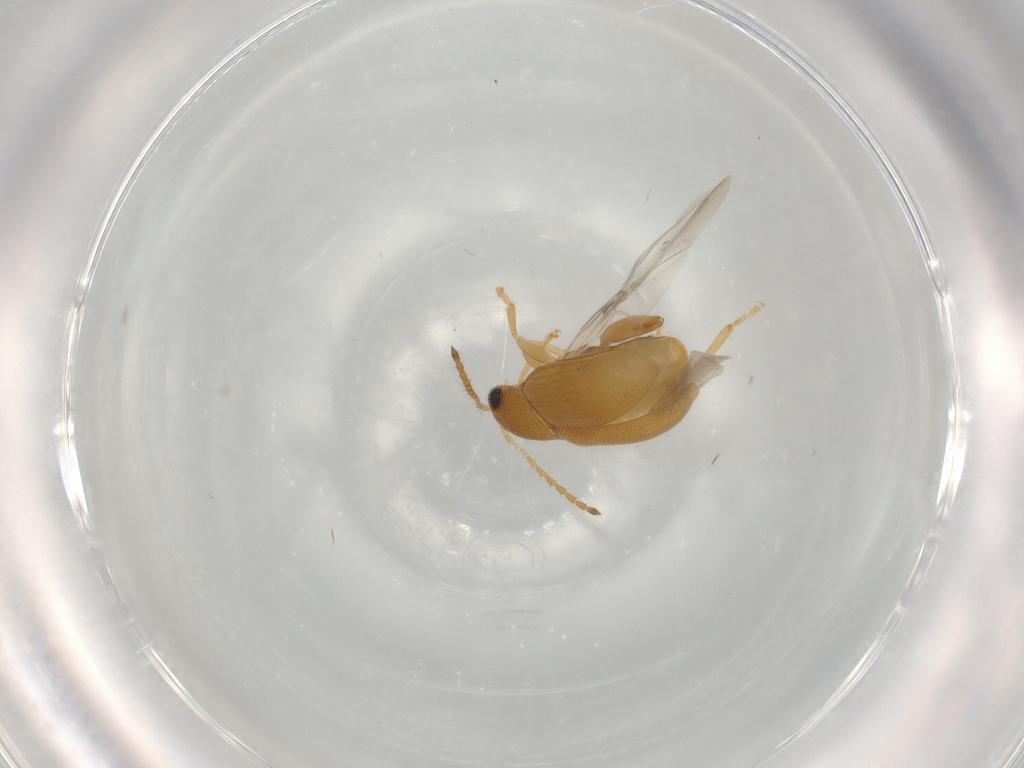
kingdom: Animalia
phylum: Arthropoda
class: Insecta
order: Coleoptera
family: Chrysomelidae
